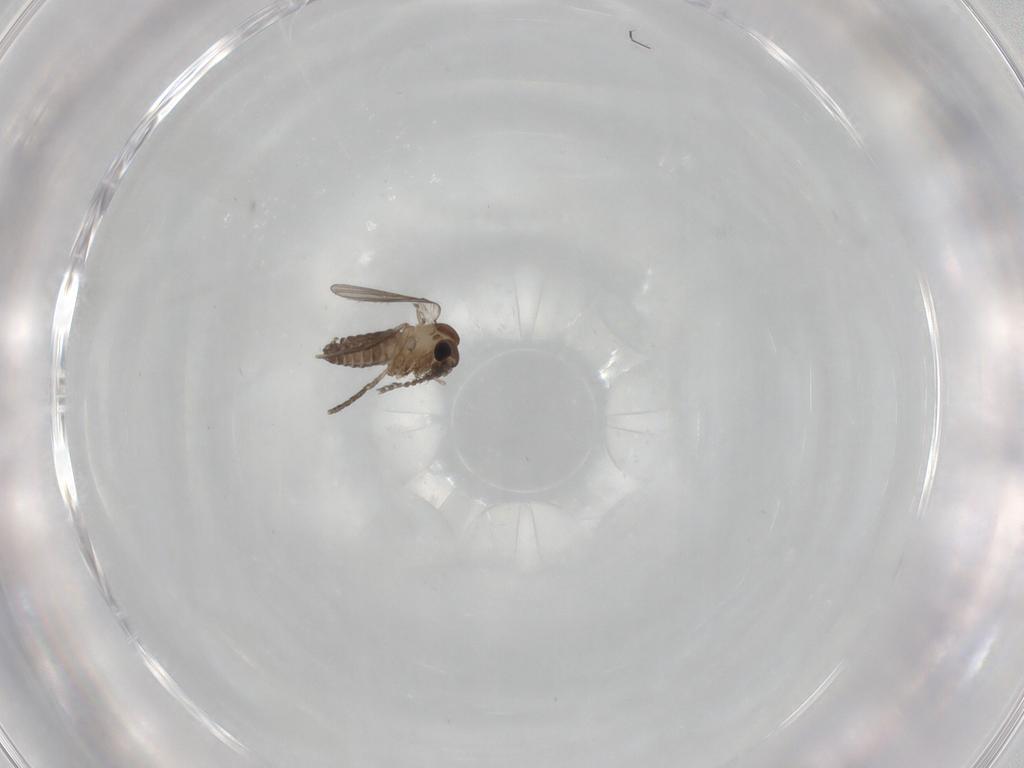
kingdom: Animalia
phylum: Arthropoda
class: Insecta
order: Diptera
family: Psychodidae
